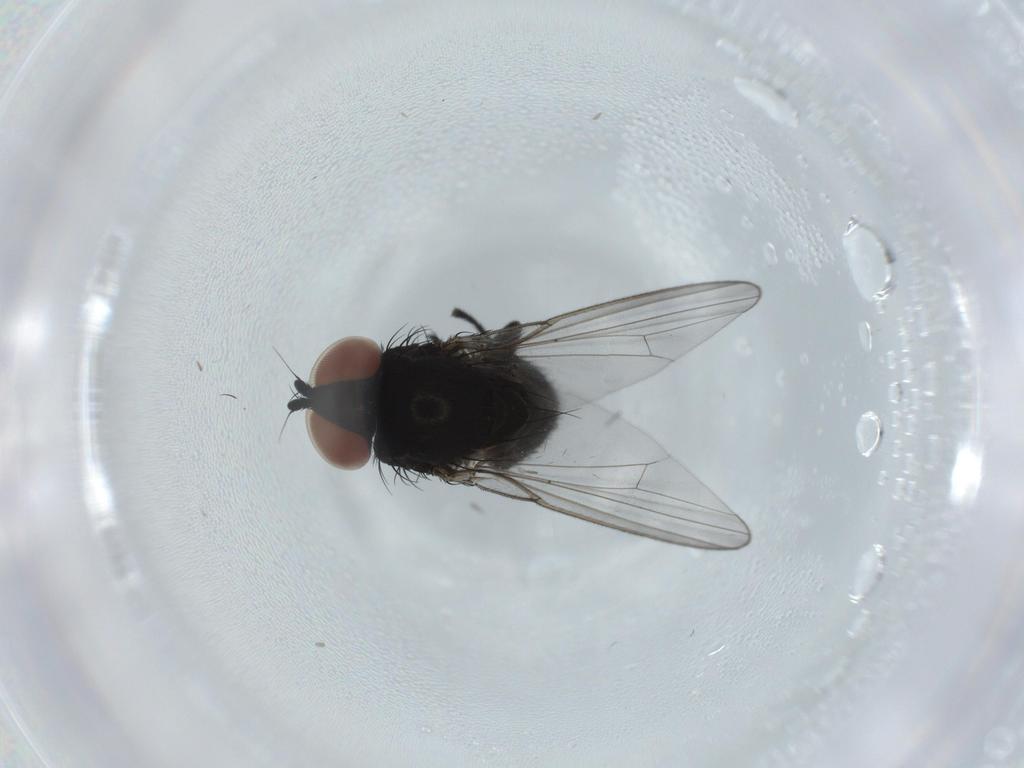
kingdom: Animalia
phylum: Arthropoda
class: Insecta
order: Diptera
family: Milichiidae
